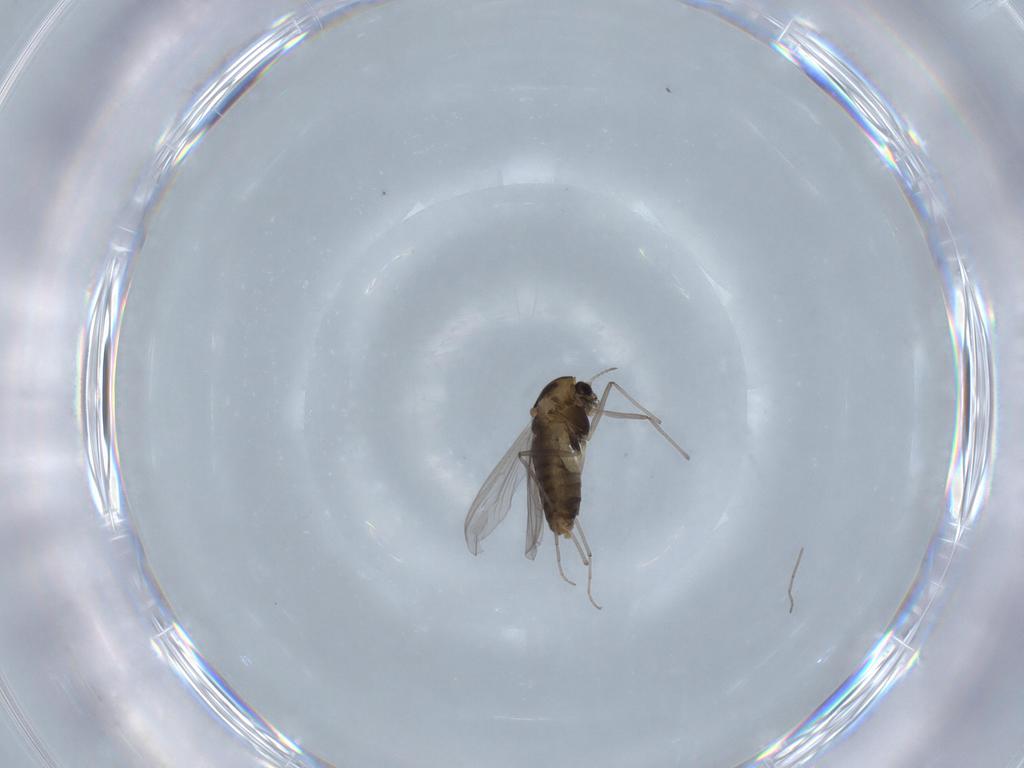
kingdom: Animalia
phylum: Arthropoda
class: Insecta
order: Diptera
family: Chironomidae
